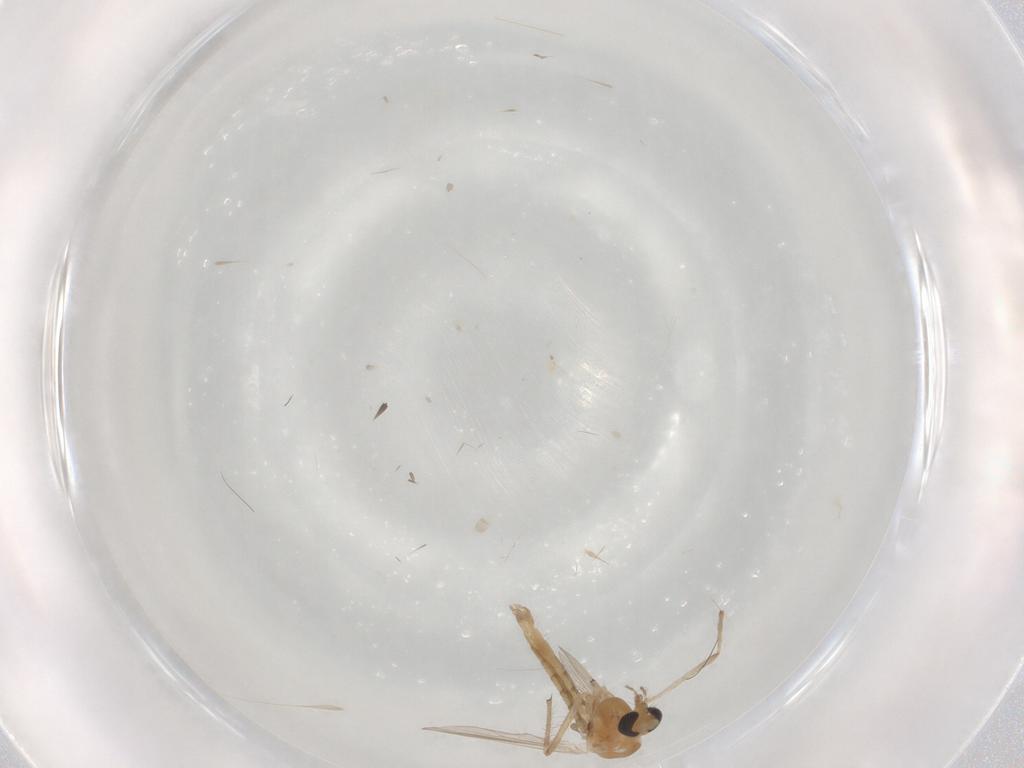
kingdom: Animalia
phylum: Arthropoda
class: Insecta
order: Diptera
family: Chironomidae
